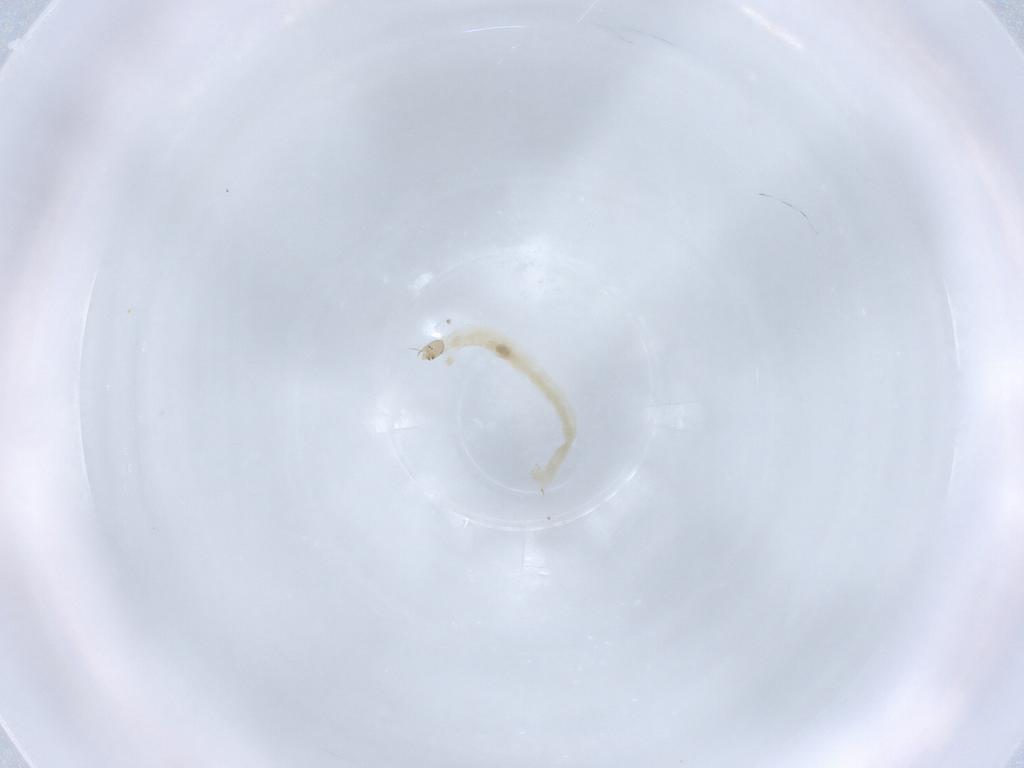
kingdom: Animalia
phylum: Arthropoda
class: Insecta
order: Diptera
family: Chironomidae
